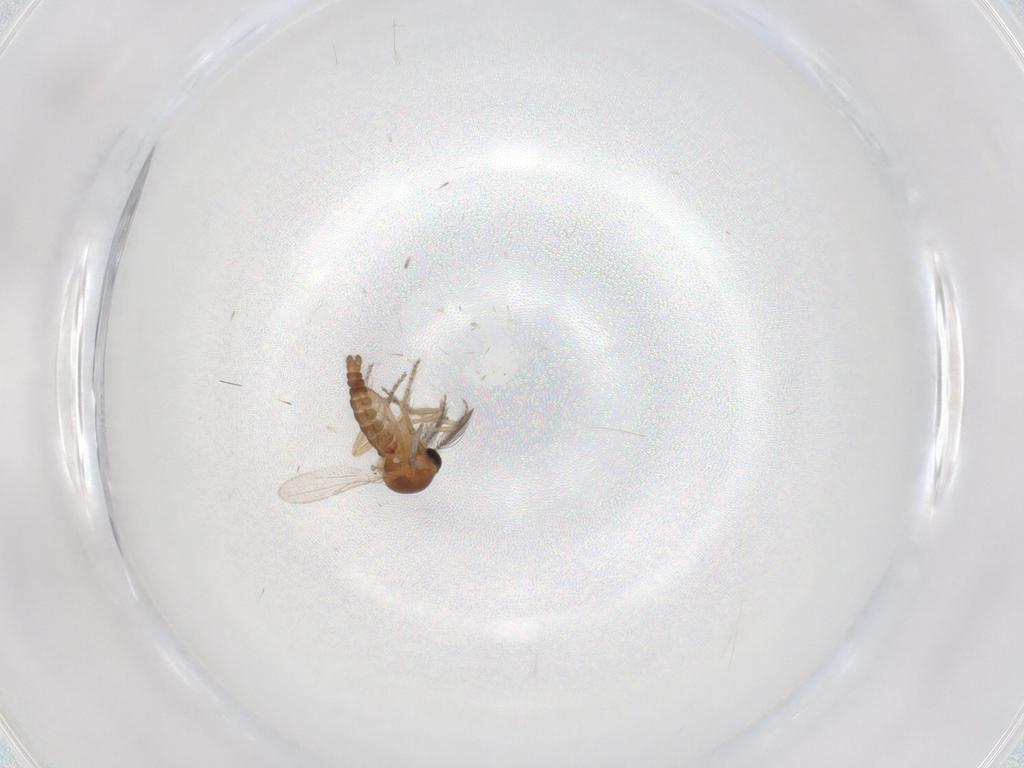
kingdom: Animalia
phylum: Arthropoda
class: Insecta
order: Diptera
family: Ceratopogonidae
